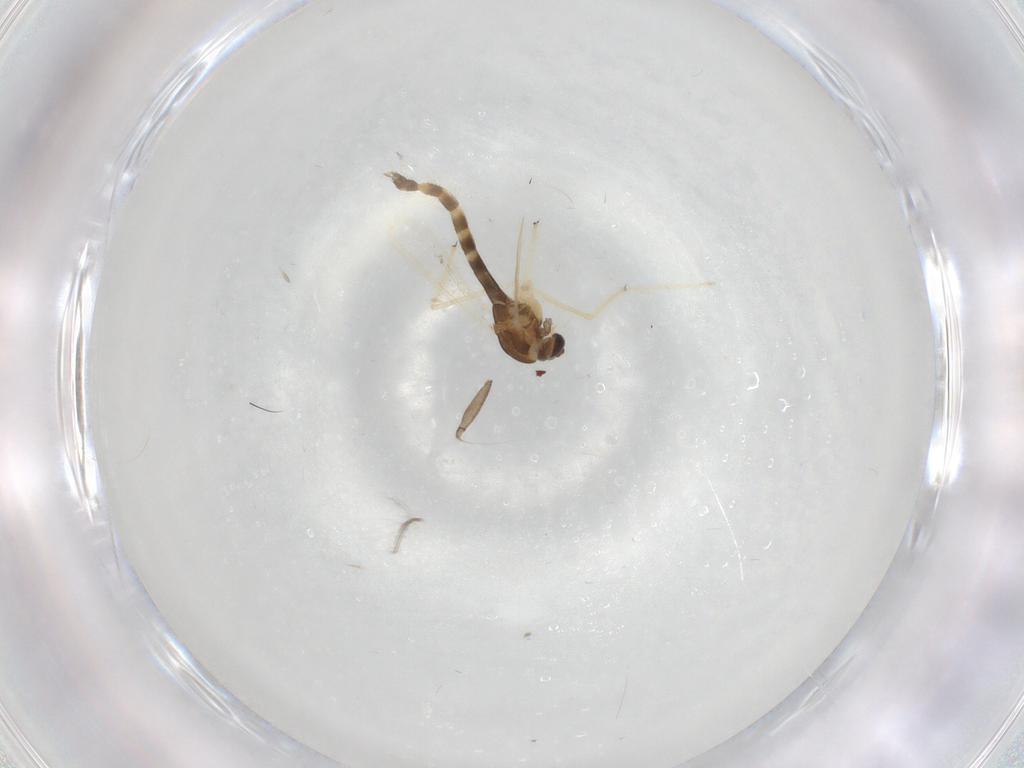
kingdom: Animalia
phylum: Arthropoda
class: Insecta
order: Diptera
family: Chironomidae
